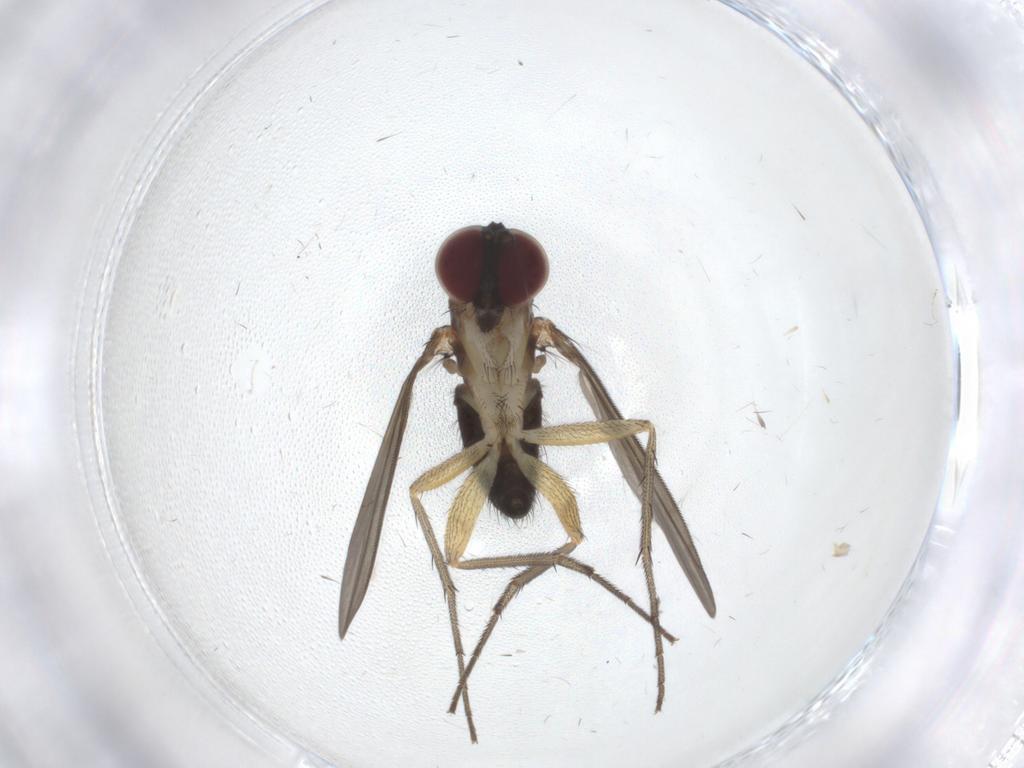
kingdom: Animalia
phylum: Arthropoda
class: Insecta
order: Diptera
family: Dolichopodidae
